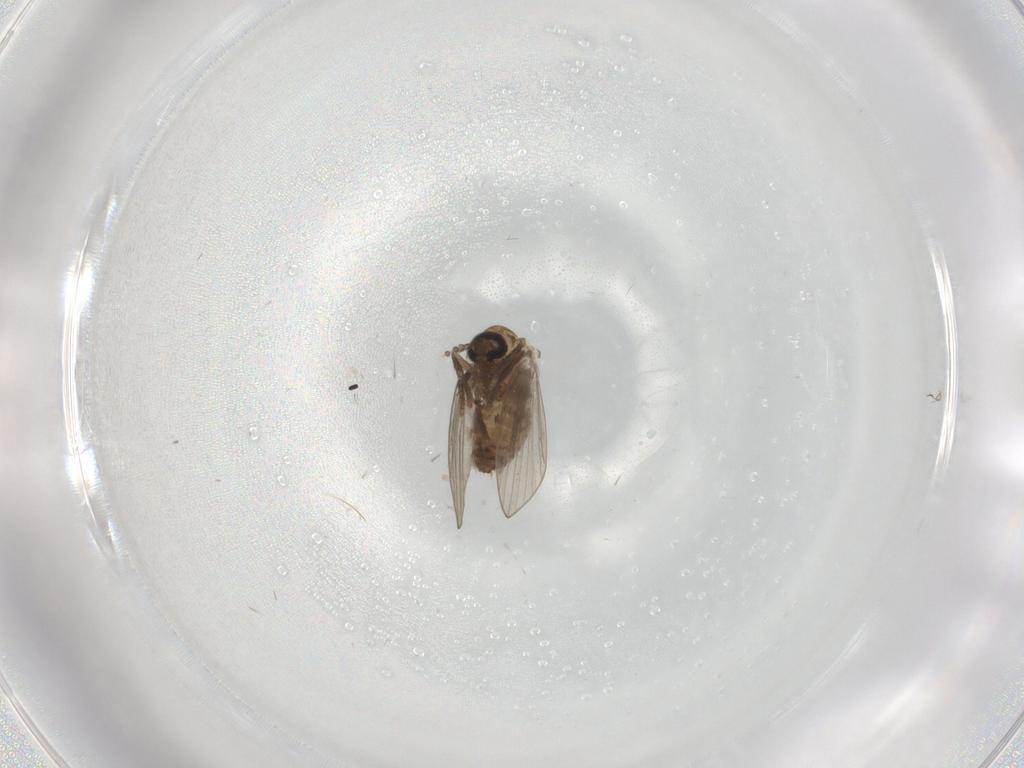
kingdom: Animalia
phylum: Arthropoda
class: Insecta
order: Diptera
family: Psychodidae
